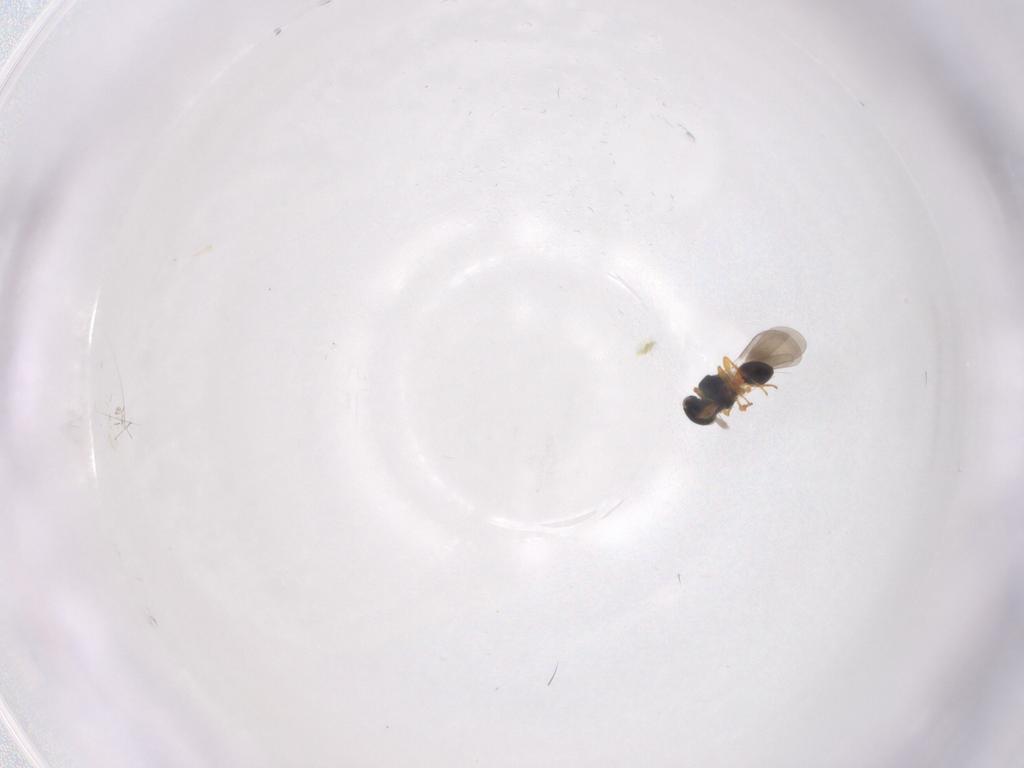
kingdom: Animalia
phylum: Arthropoda
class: Insecta
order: Hymenoptera
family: Platygastridae
